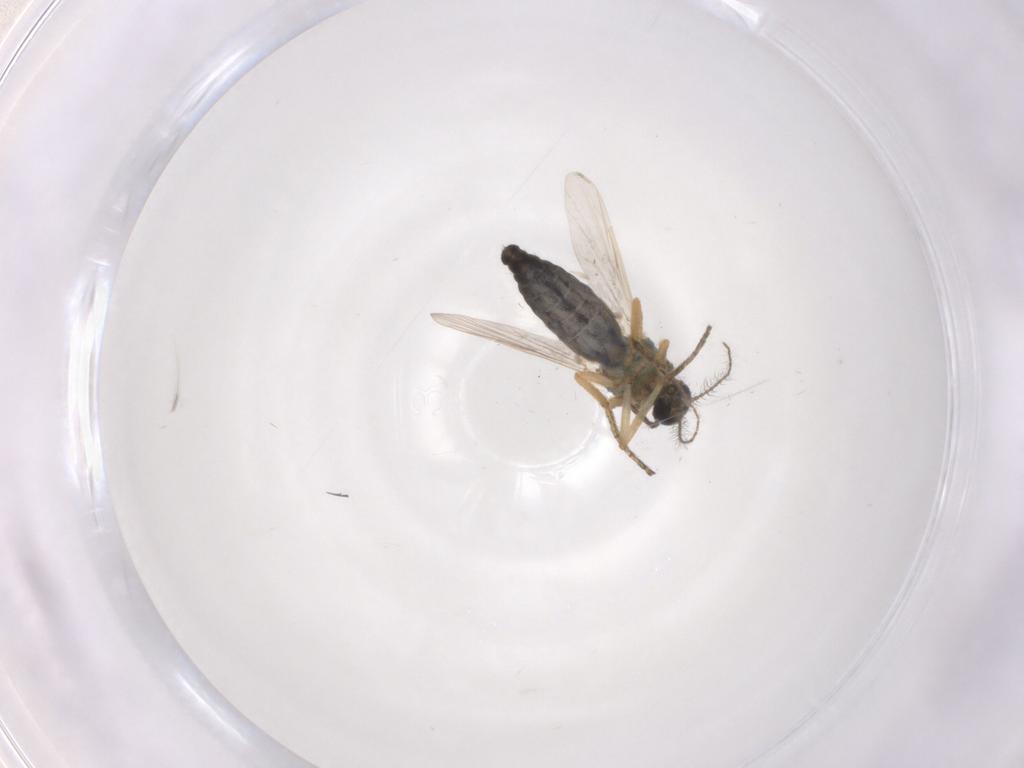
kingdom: Animalia
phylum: Arthropoda
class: Insecta
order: Diptera
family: Ceratopogonidae
